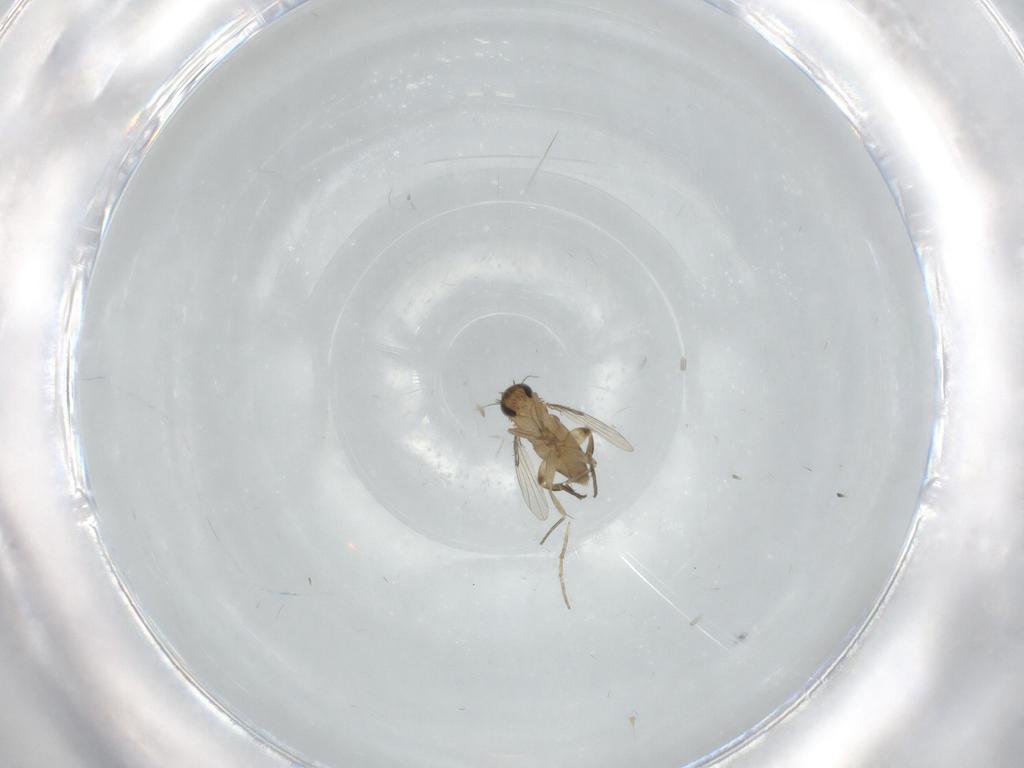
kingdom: Animalia
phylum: Arthropoda
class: Insecta
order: Diptera
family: Chironomidae
